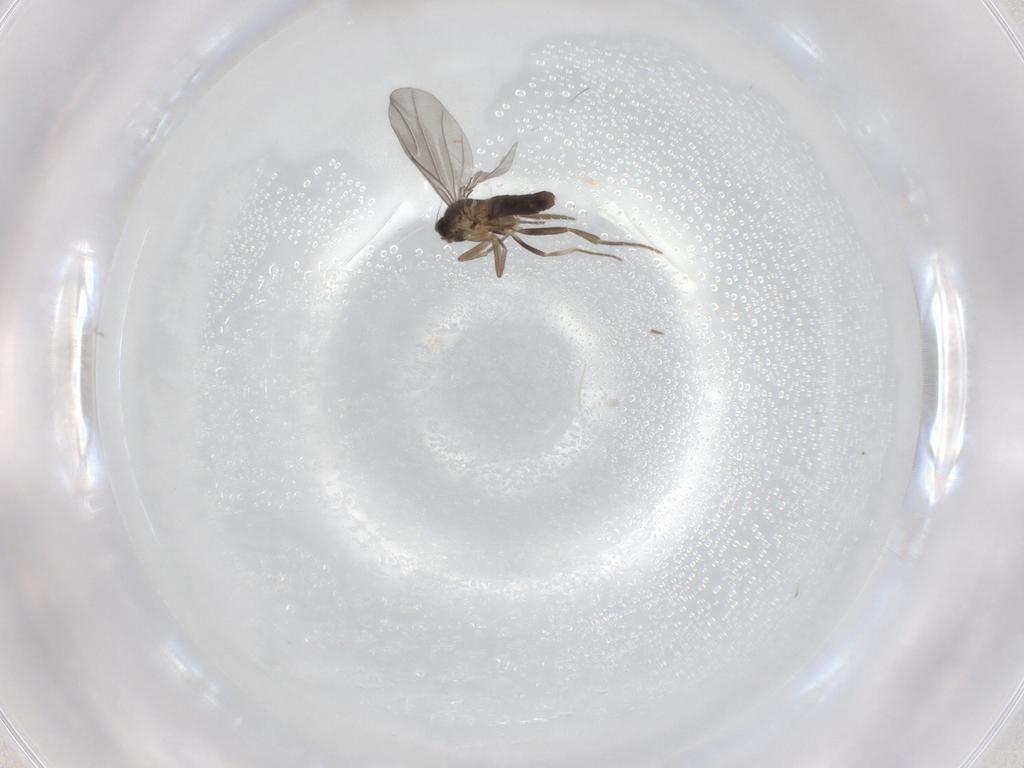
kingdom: Animalia
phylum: Arthropoda
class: Insecta
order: Diptera
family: Phoridae
